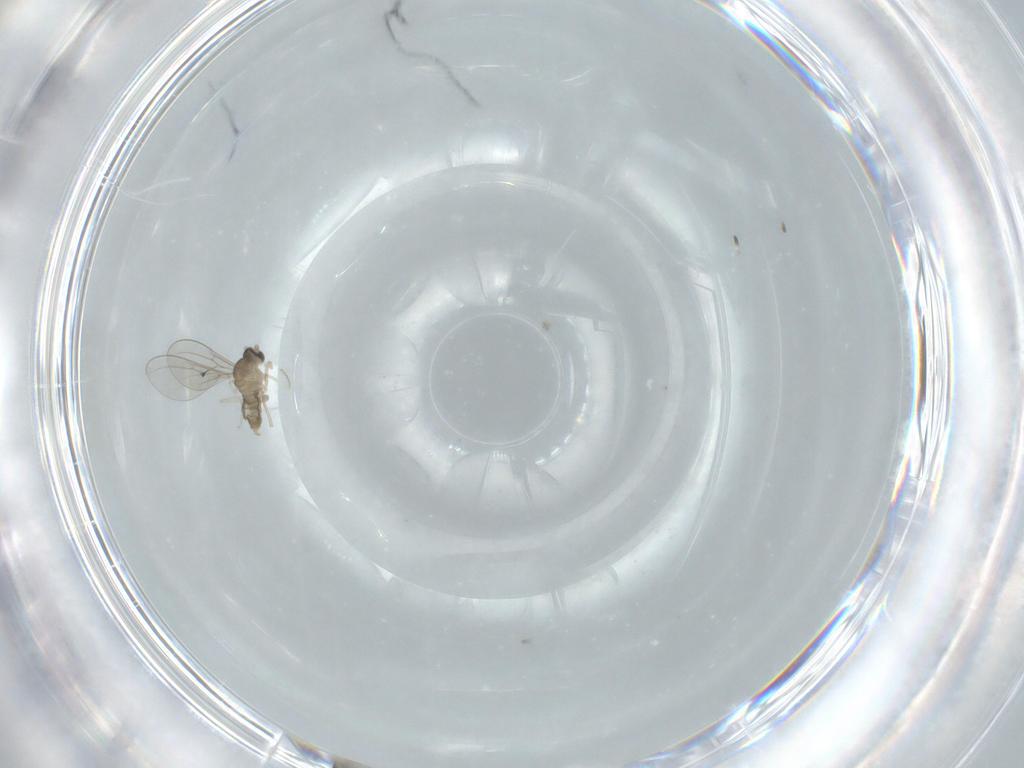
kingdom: Animalia
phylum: Arthropoda
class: Insecta
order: Diptera
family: Cecidomyiidae
